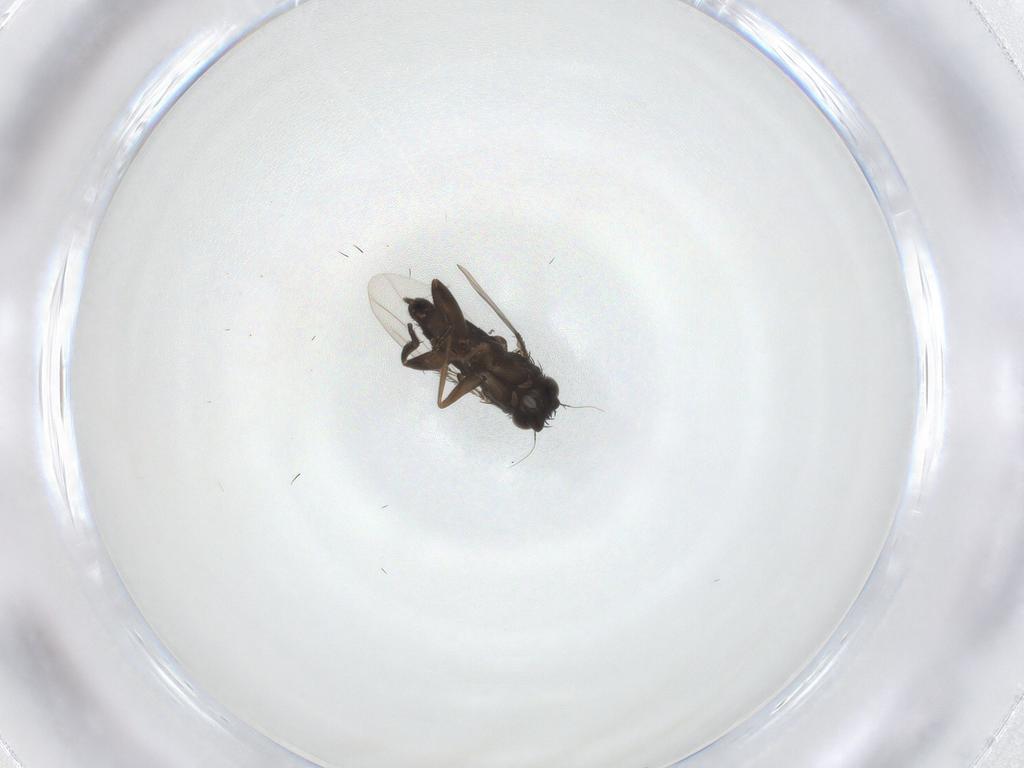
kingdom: Animalia
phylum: Arthropoda
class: Insecta
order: Diptera
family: Phoridae
